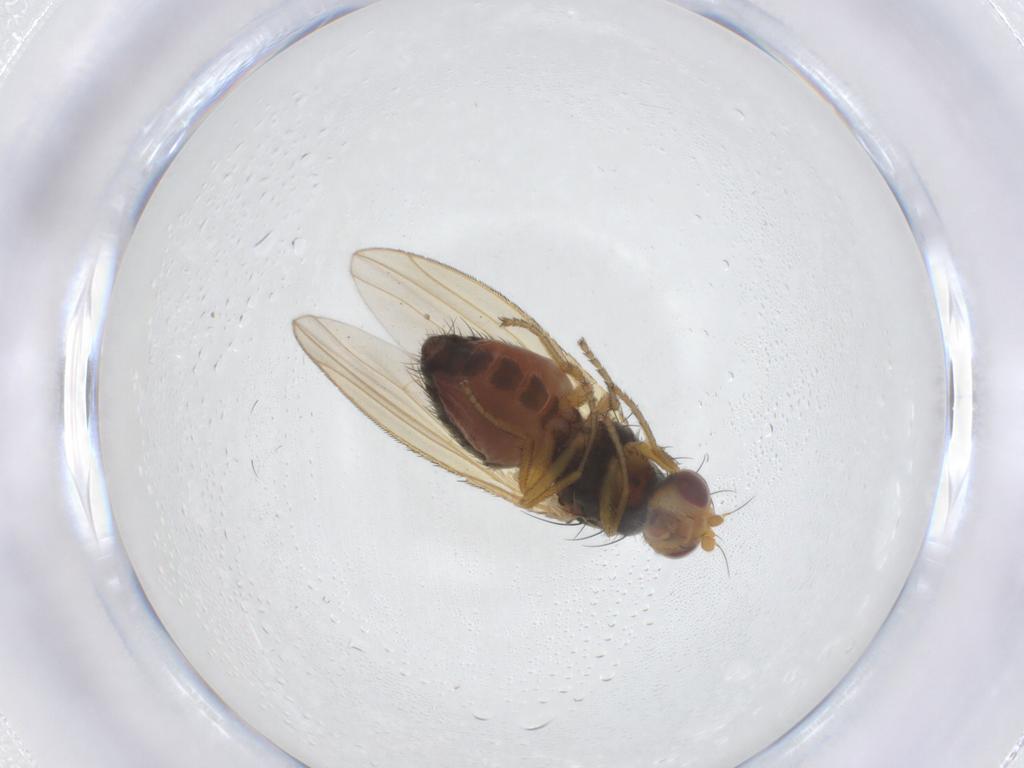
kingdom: Animalia
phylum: Arthropoda
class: Insecta
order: Diptera
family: Heleomyzidae
